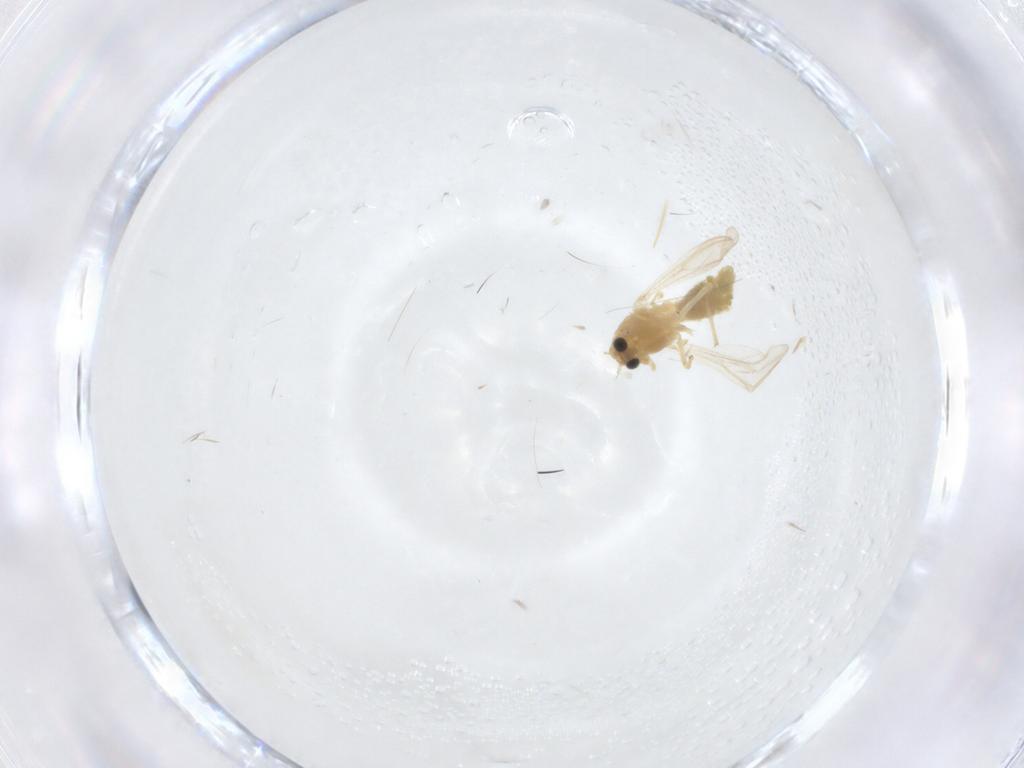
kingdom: Animalia
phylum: Arthropoda
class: Insecta
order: Diptera
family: Chironomidae
